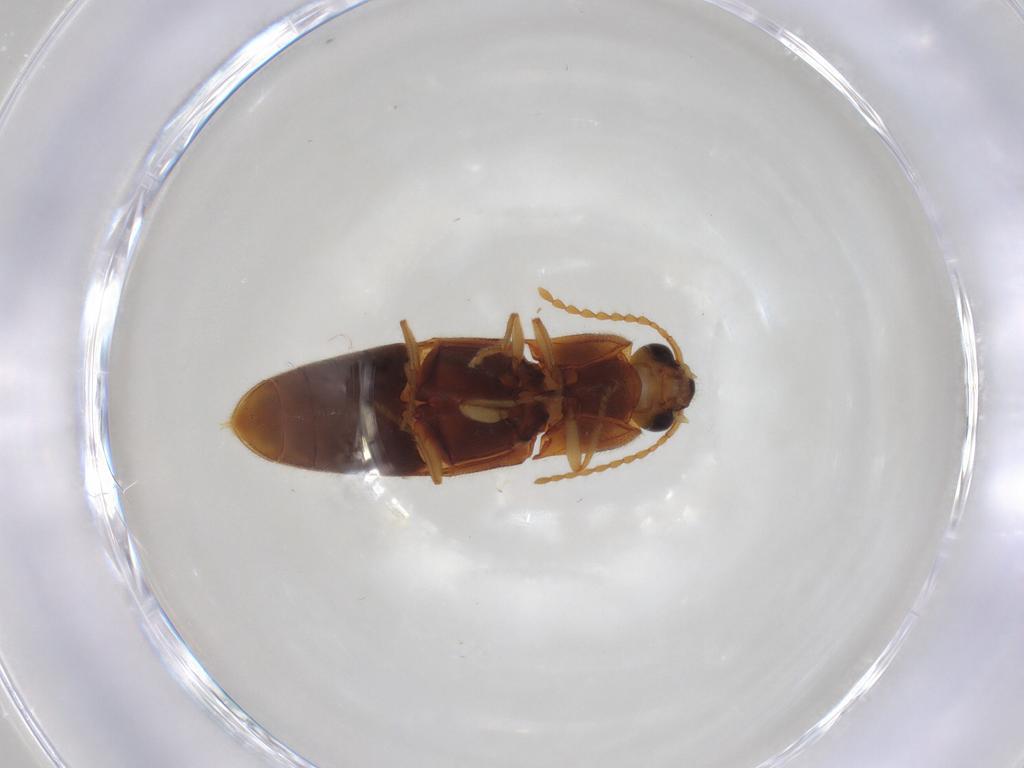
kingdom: Animalia
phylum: Arthropoda
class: Insecta
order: Coleoptera
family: Elateridae
